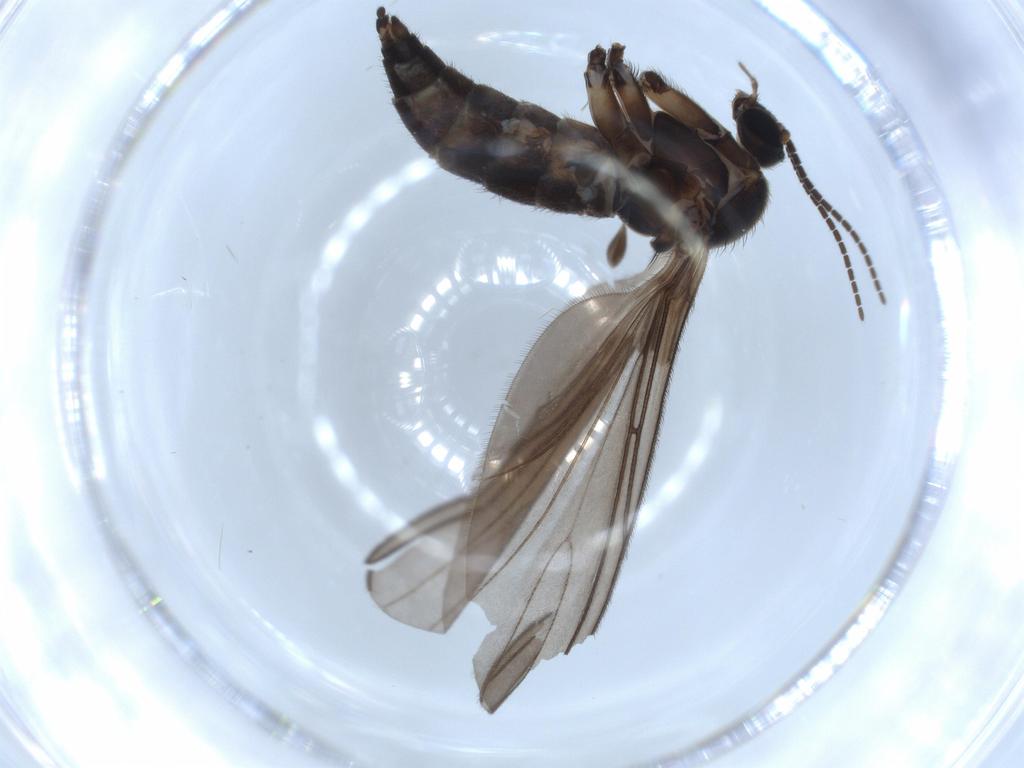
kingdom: Animalia
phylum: Arthropoda
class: Insecta
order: Diptera
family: Sciaridae
